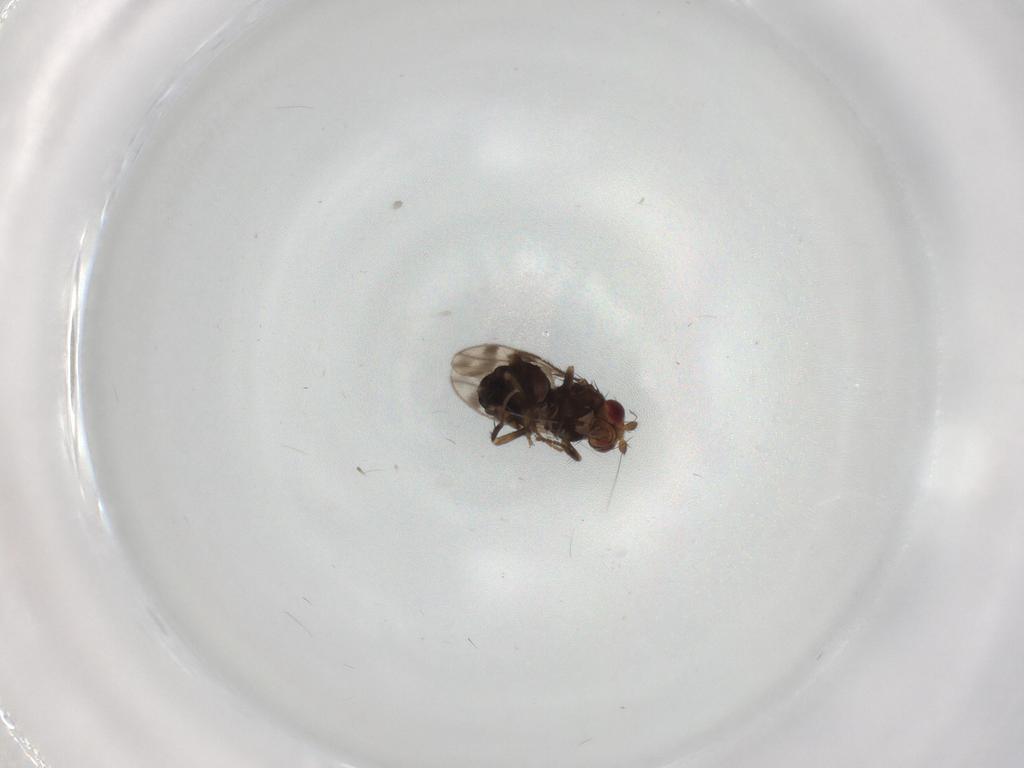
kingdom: Animalia
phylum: Arthropoda
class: Insecta
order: Diptera
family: Sphaeroceridae
